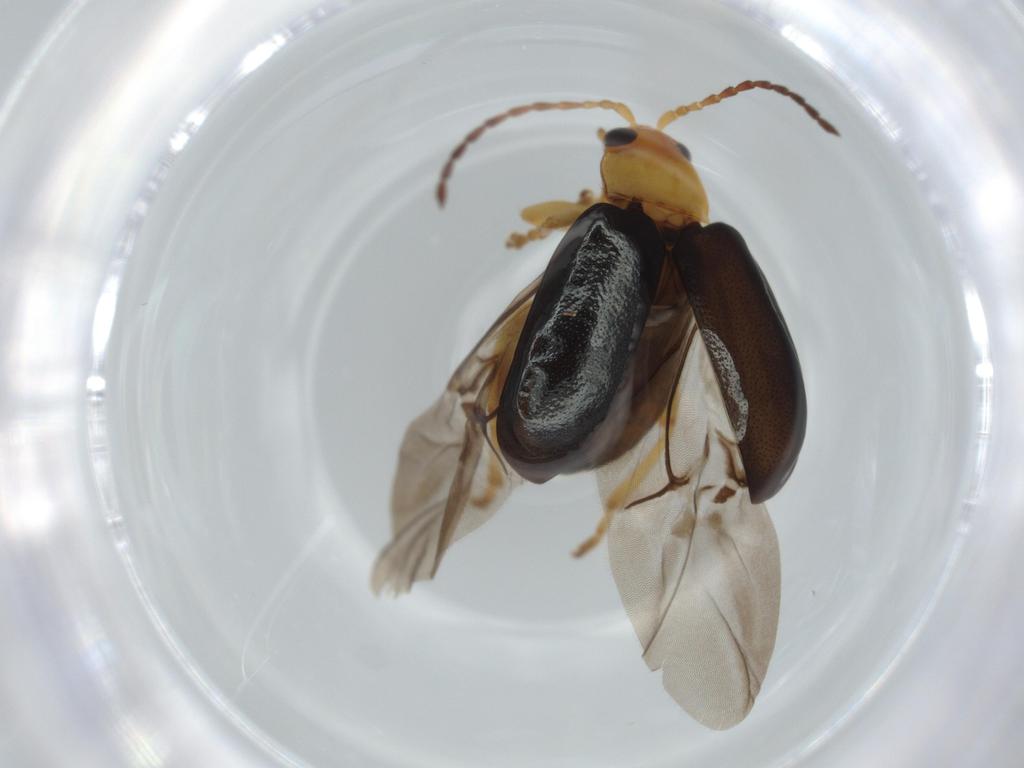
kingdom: Animalia
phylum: Arthropoda
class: Insecta
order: Coleoptera
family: Chrysomelidae
